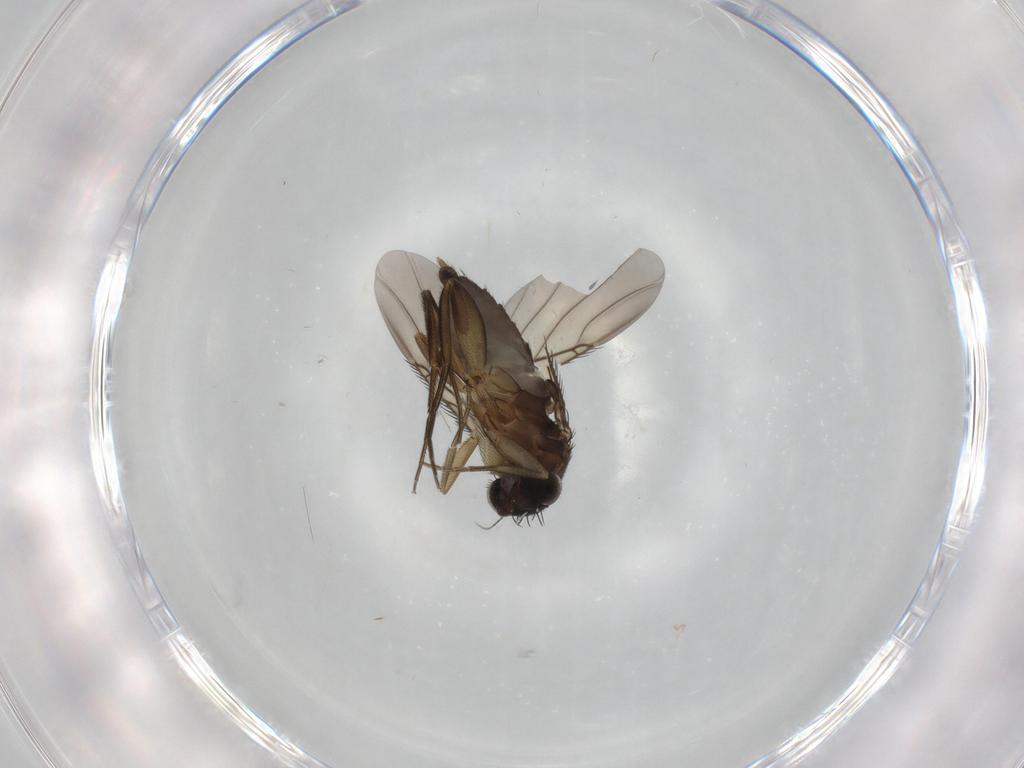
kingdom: Animalia
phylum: Arthropoda
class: Insecta
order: Diptera
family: Phoridae
